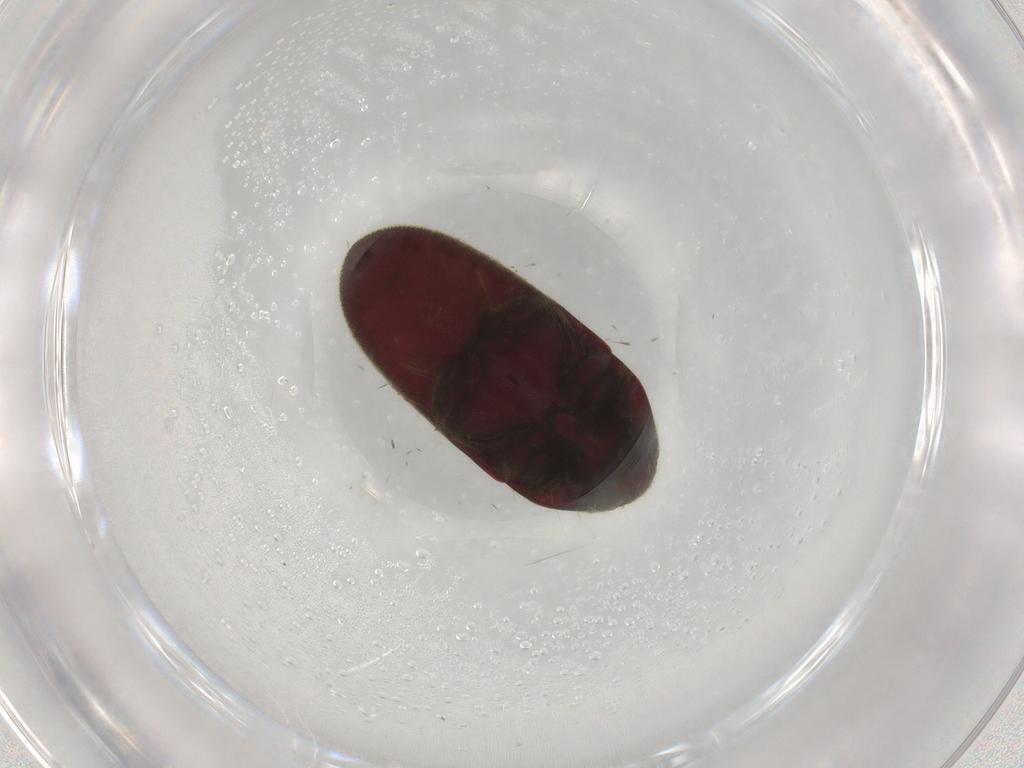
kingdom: Animalia
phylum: Arthropoda
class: Insecta
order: Coleoptera
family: Throscidae
